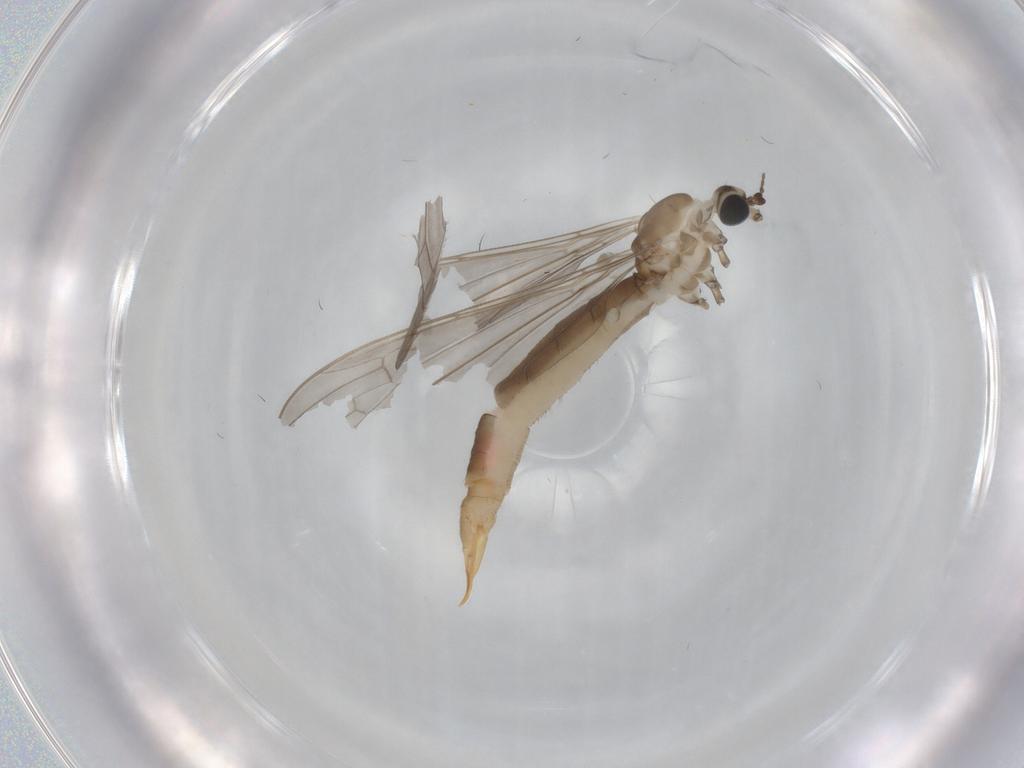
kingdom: Animalia
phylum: Arthropoda
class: Insecta
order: Diptera
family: Limoniidae
